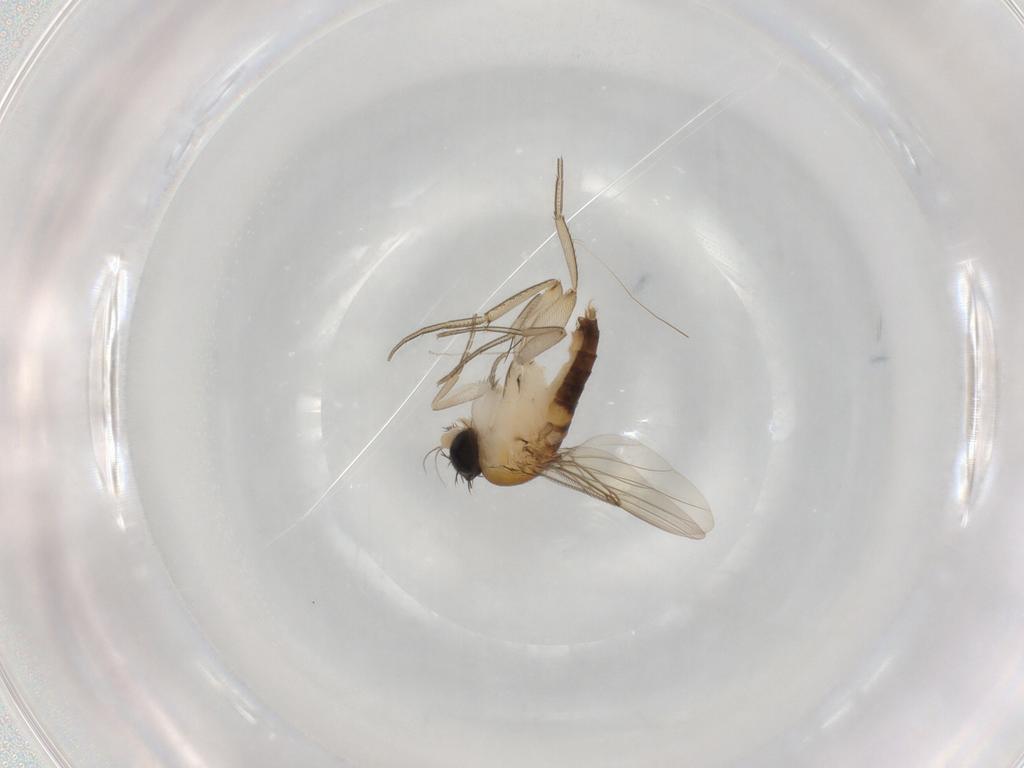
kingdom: Animalia
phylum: Arthropoda
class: Insecta
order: Diptera
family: Phoridae
